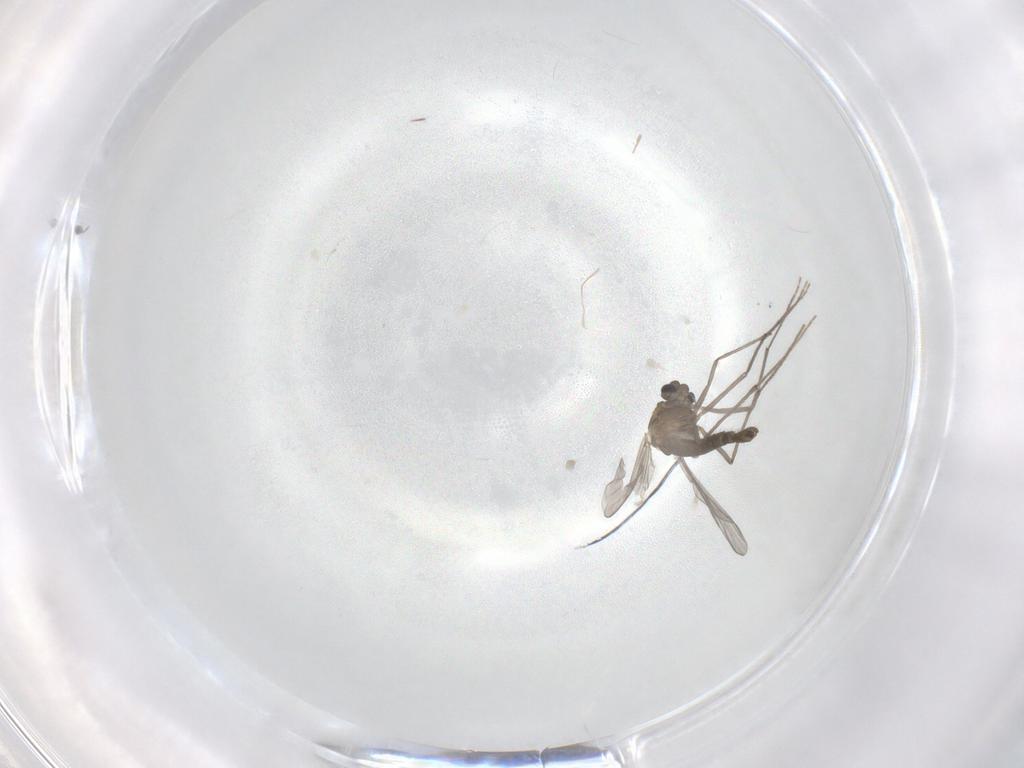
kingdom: Animalia
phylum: Arthropoda
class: Insecta
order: Diptera
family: Chironomidae
